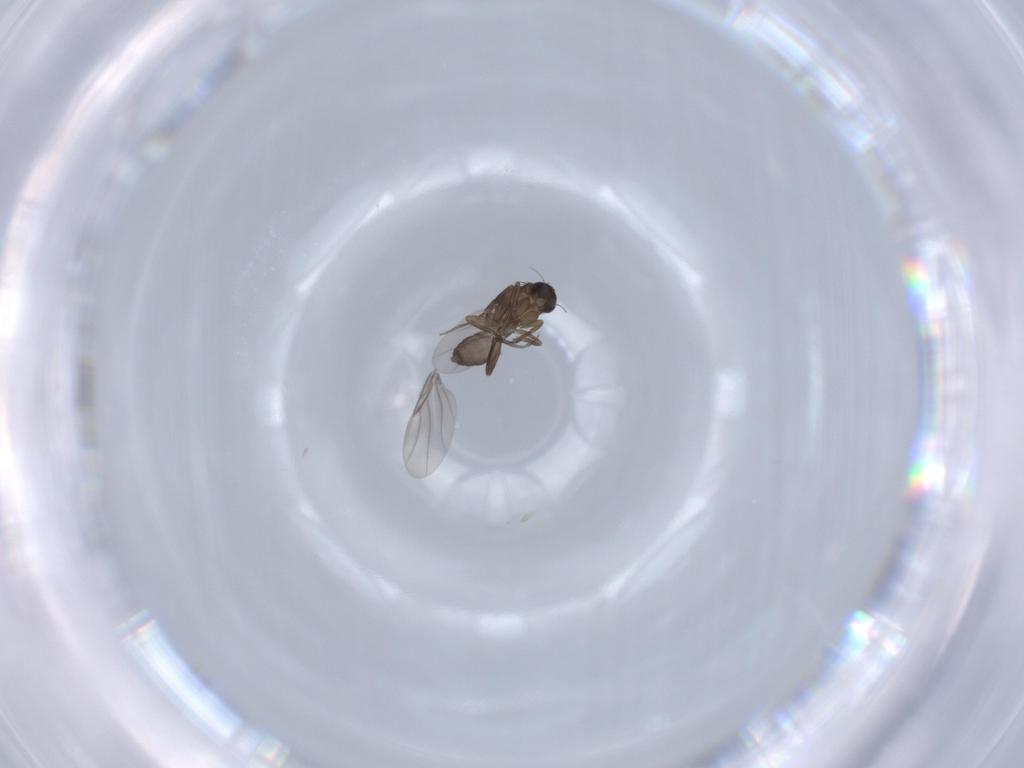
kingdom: Animalia
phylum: Arthropoda
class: Insecta
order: Diptera
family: Phoridae
